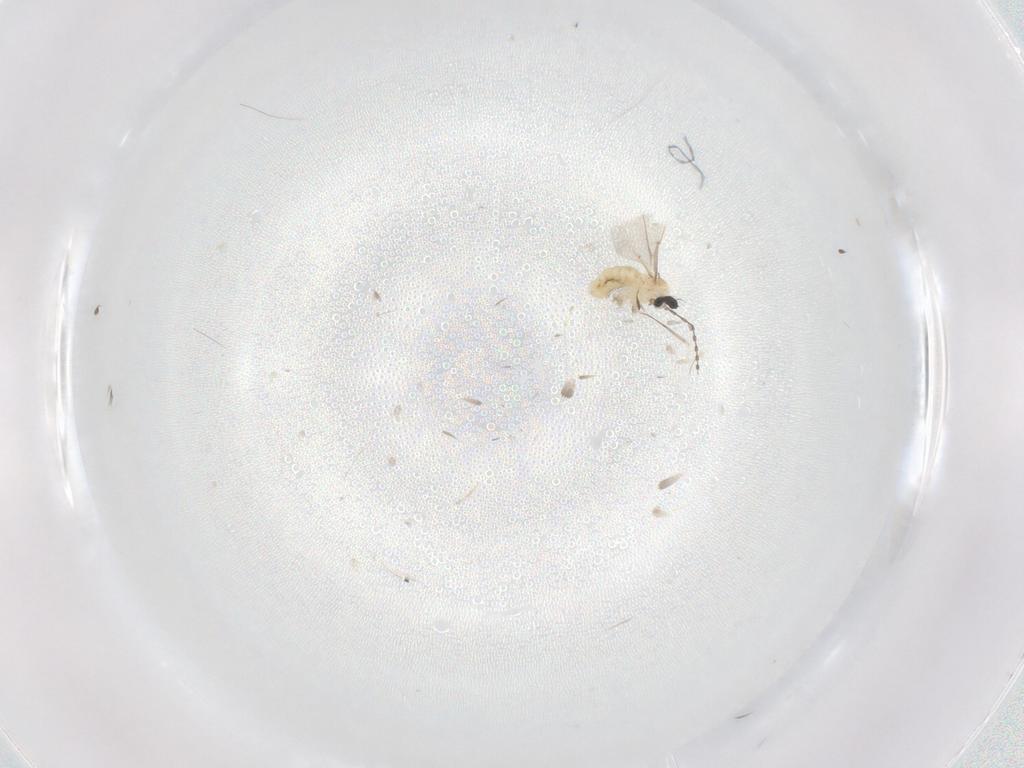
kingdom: Animalia
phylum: Arthropoda
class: Insecta
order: Diptera
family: Cecidomyiidae
